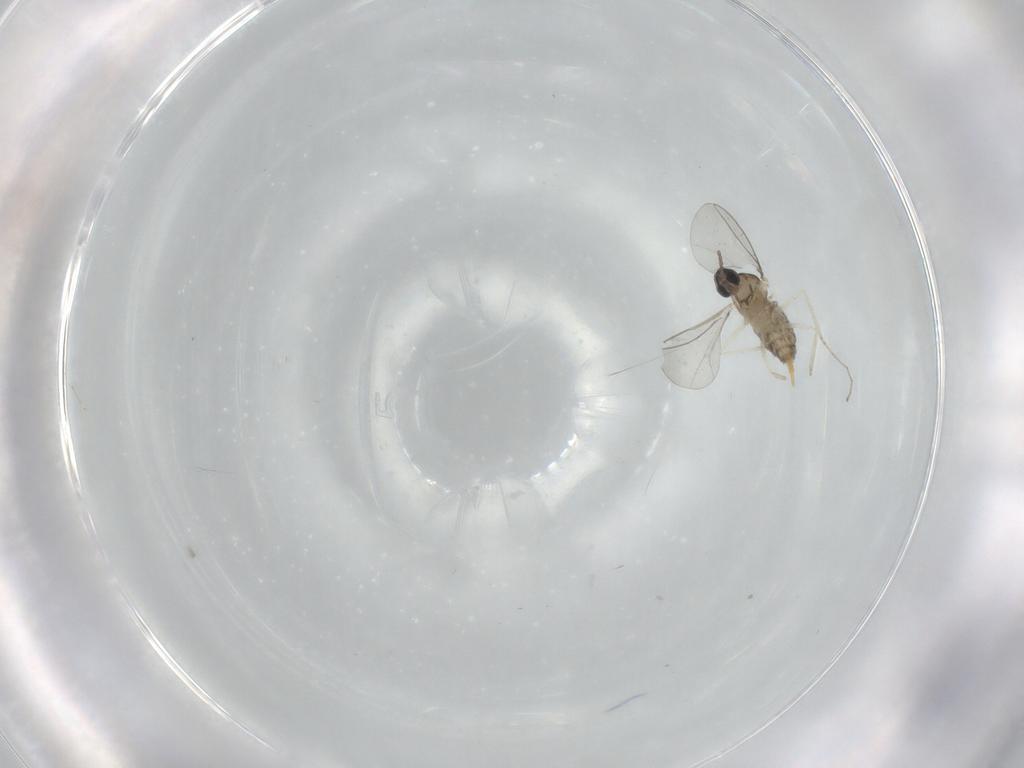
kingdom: Animalia
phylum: Arthropoda
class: Insecta
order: Diptera
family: Cecidomyiidae
